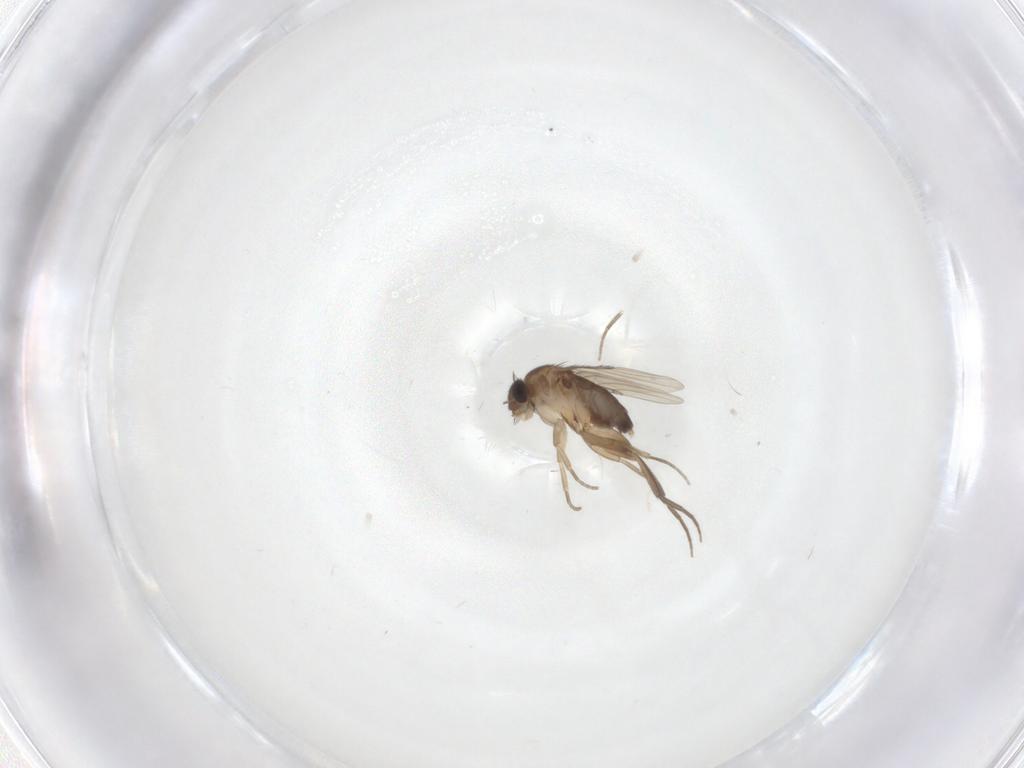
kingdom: Animalia
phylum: Arthropoda
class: Insecta
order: Diptera
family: Phoridae
